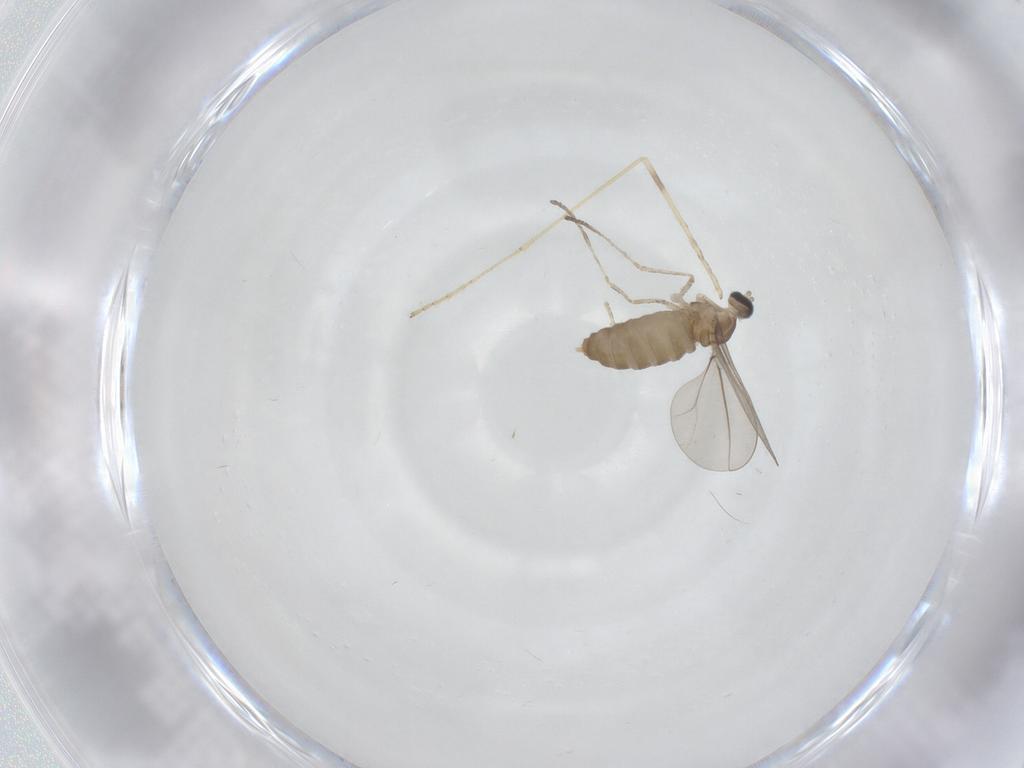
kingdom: Animalia
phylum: Arthropoda
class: Insecta
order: Diptera
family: Cecidomyiidae
